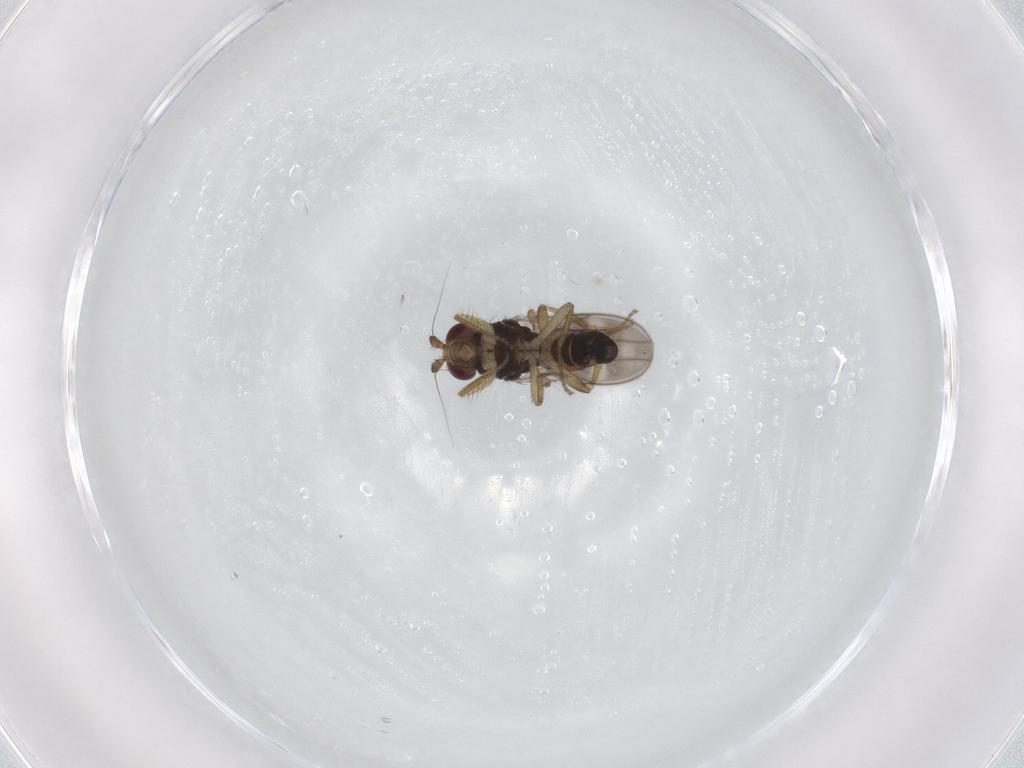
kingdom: Animalia
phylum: Arthropoda
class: Insecta
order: Diptera
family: Sphaeroceridae
